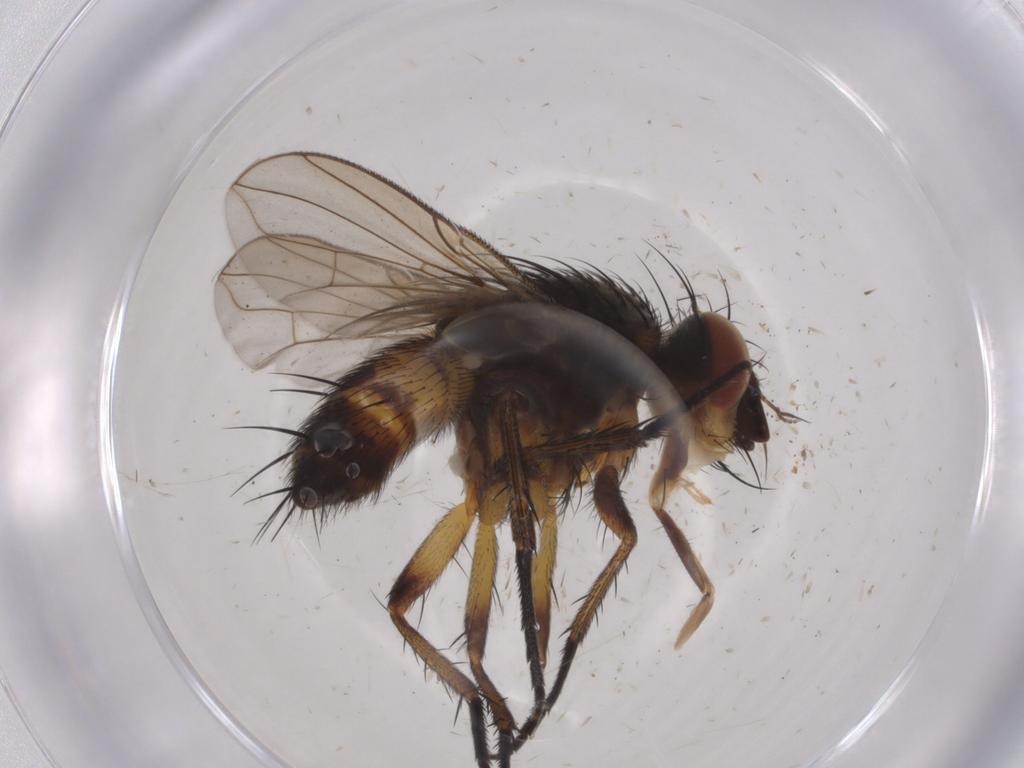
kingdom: Animalia
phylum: Arthropoda
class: Insecta
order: Diptera
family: Tachinidae
